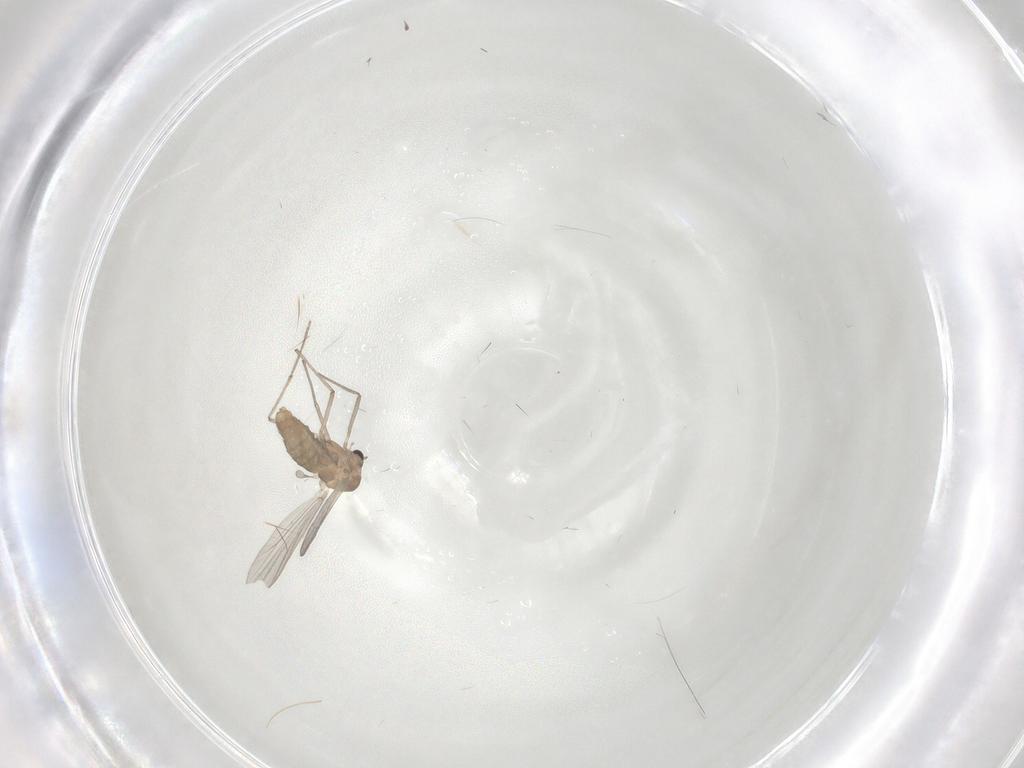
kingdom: Animalia
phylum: Arthropoda
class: Insecta
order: Diptera
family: Chironomidae
